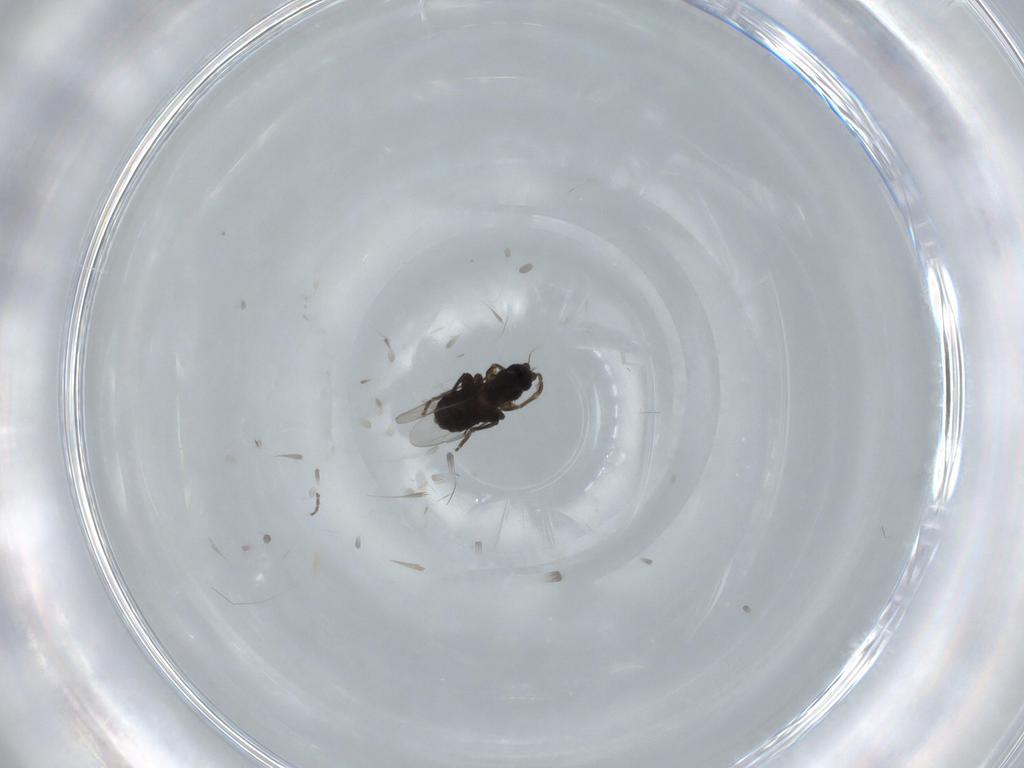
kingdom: Animalia
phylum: Arthropoda
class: Insecta
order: Diptera
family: Phoridae
